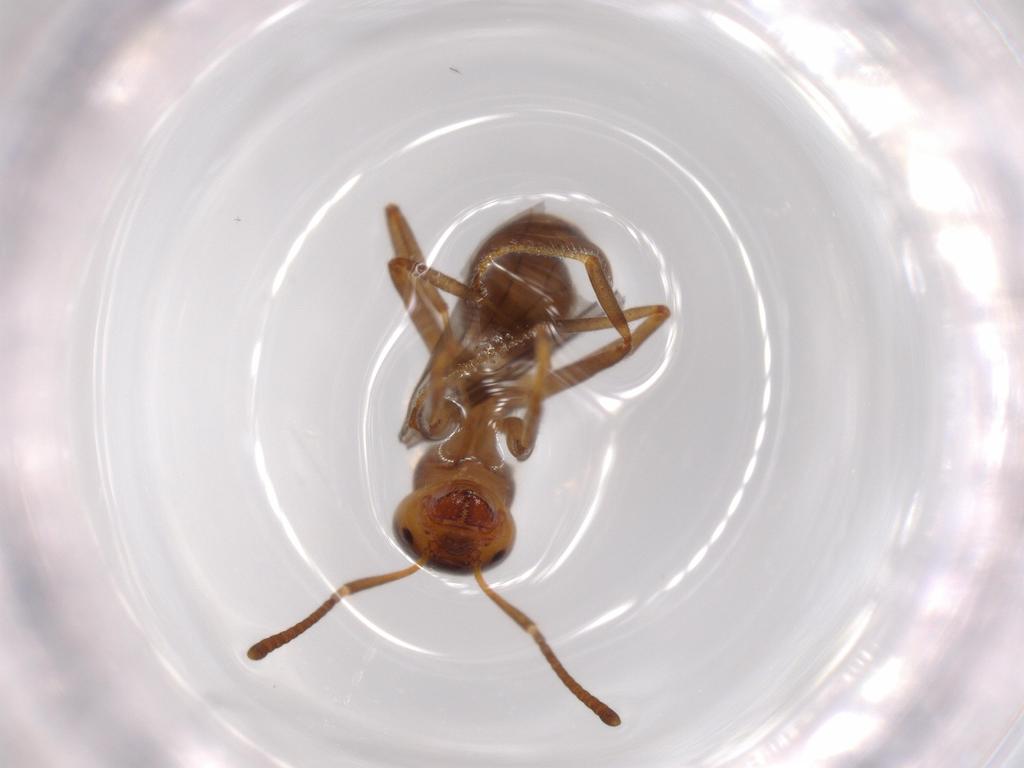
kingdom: Animalia
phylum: Arthropoda
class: Insecta
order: Hymenoptera
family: Formicidae
